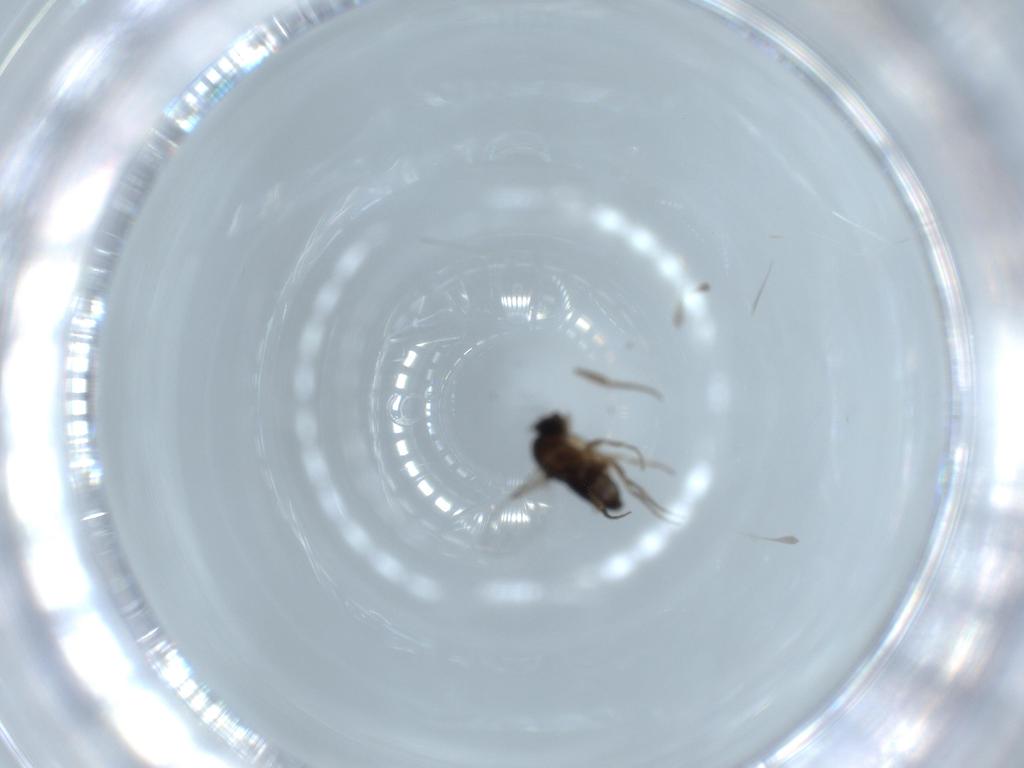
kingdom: Animalia
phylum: Arthropoda
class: Insecta
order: Diptera
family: Phoridae
